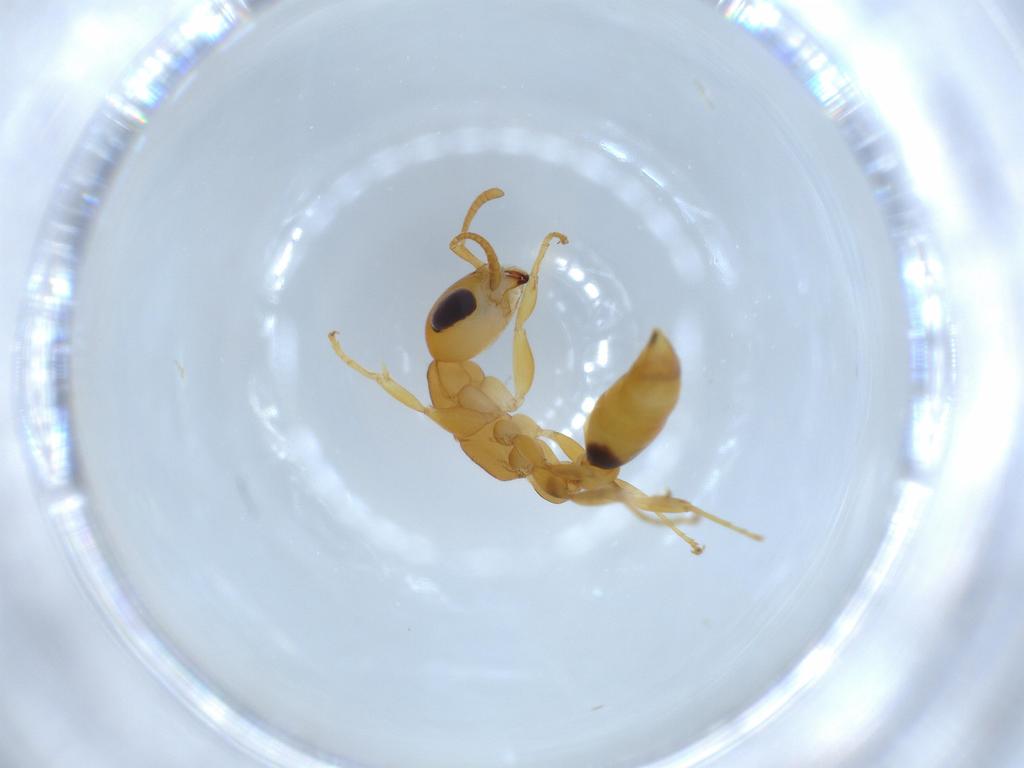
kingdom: Animalia
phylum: Arthropoda
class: Insecta
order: Hymenoptera
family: Formicidae
